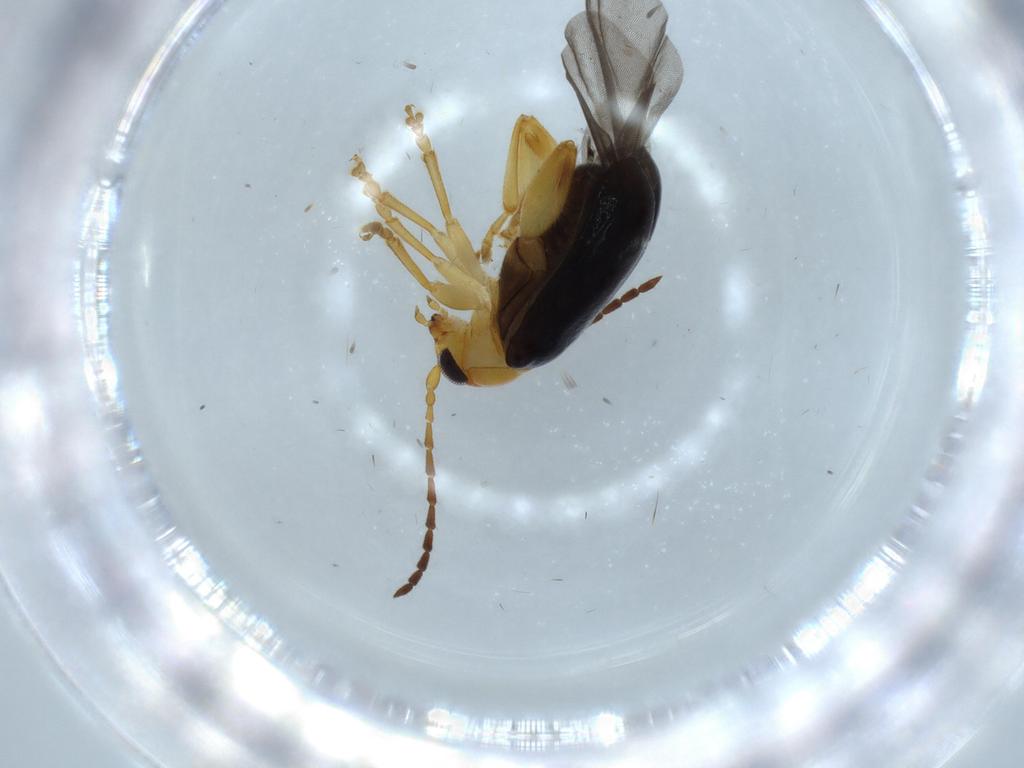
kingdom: Animalia
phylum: Arthropoda
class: Insecta
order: Coleoptera
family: Chrysomelidae
